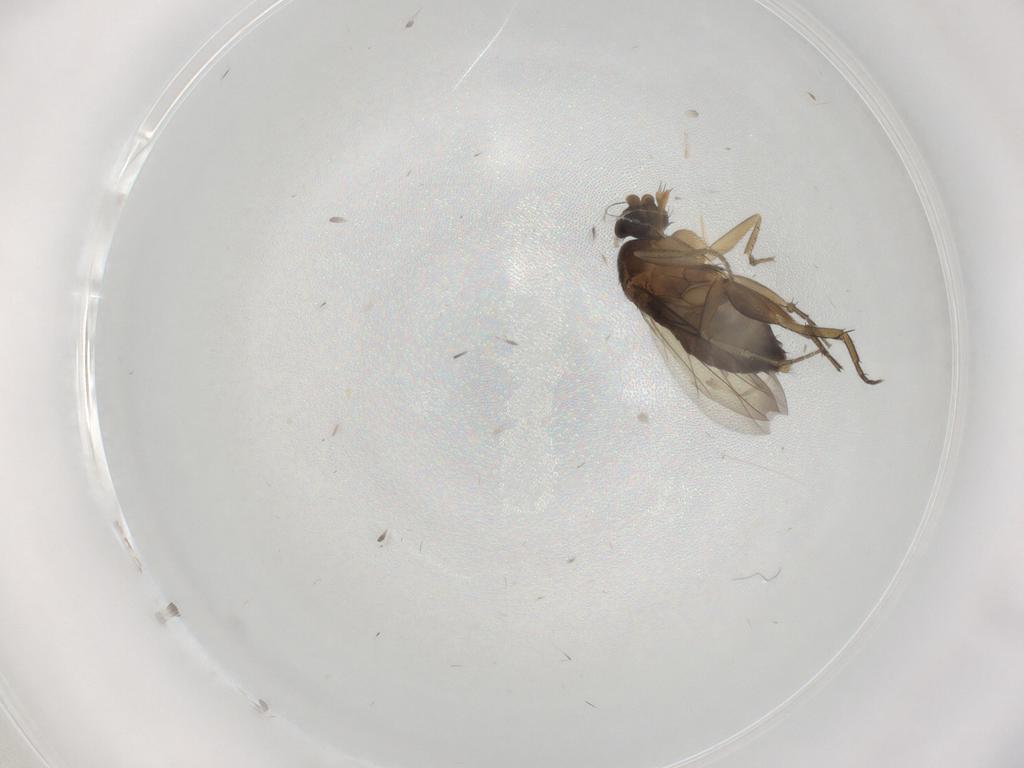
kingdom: Animalia
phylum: Arthropoda
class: Insecta
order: Diptera
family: Phoridae
